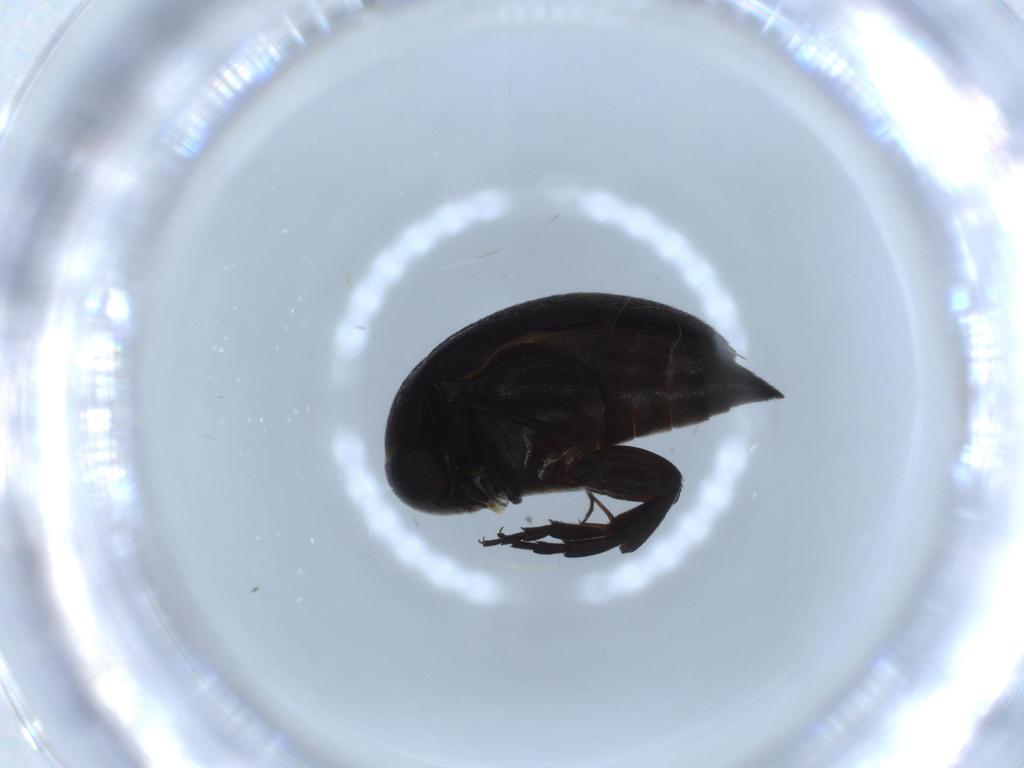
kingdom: Animalia
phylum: Arthropoda
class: Insecta
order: Coleoptera
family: Mordellidae
